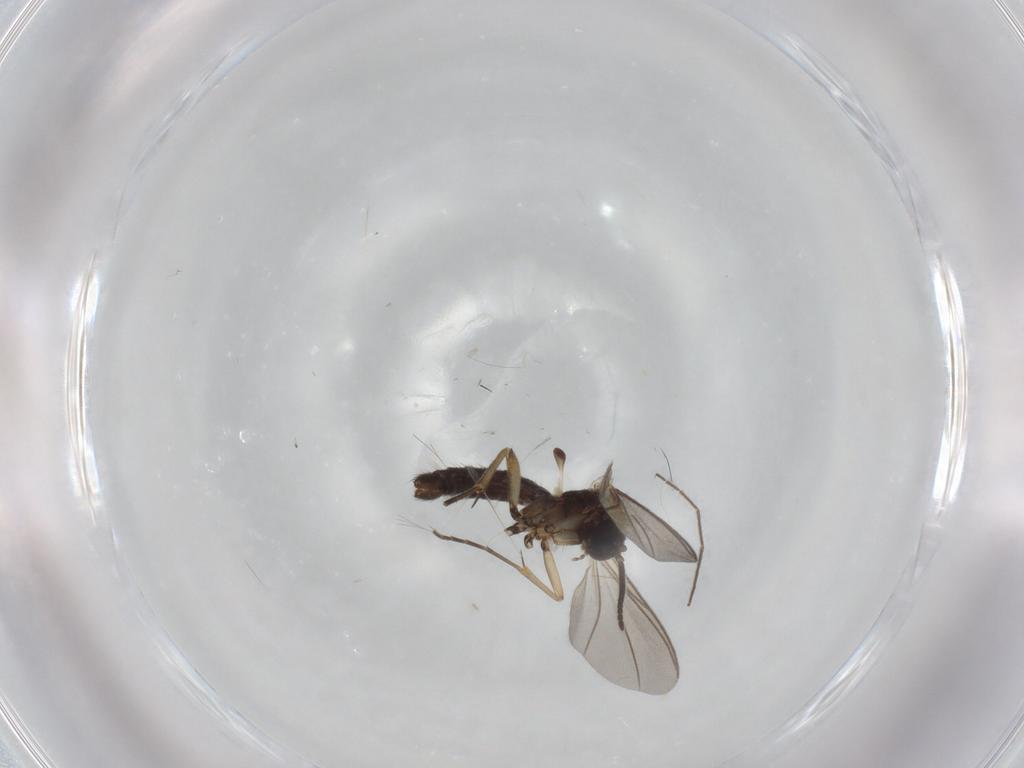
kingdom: Animalia
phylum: Arthropoda
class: Insecta
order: Diptera
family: Mycetophilidae
